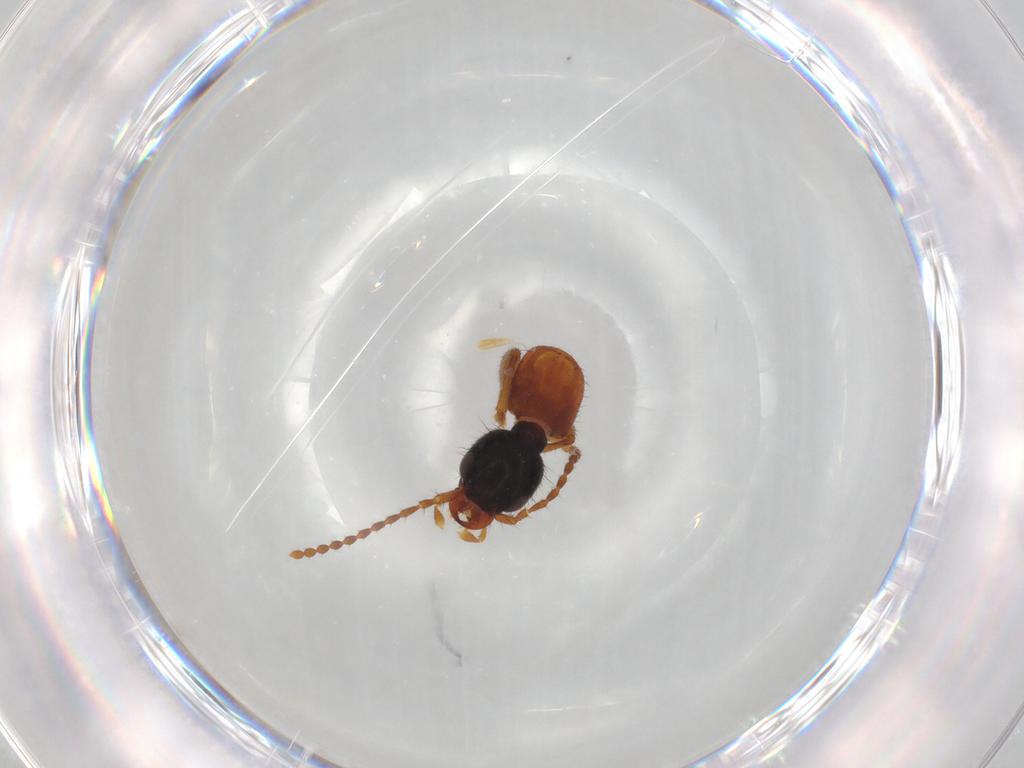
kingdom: Animalia
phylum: Arthropoda
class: Insecta
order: Coleoptera
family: Staphylinidae
